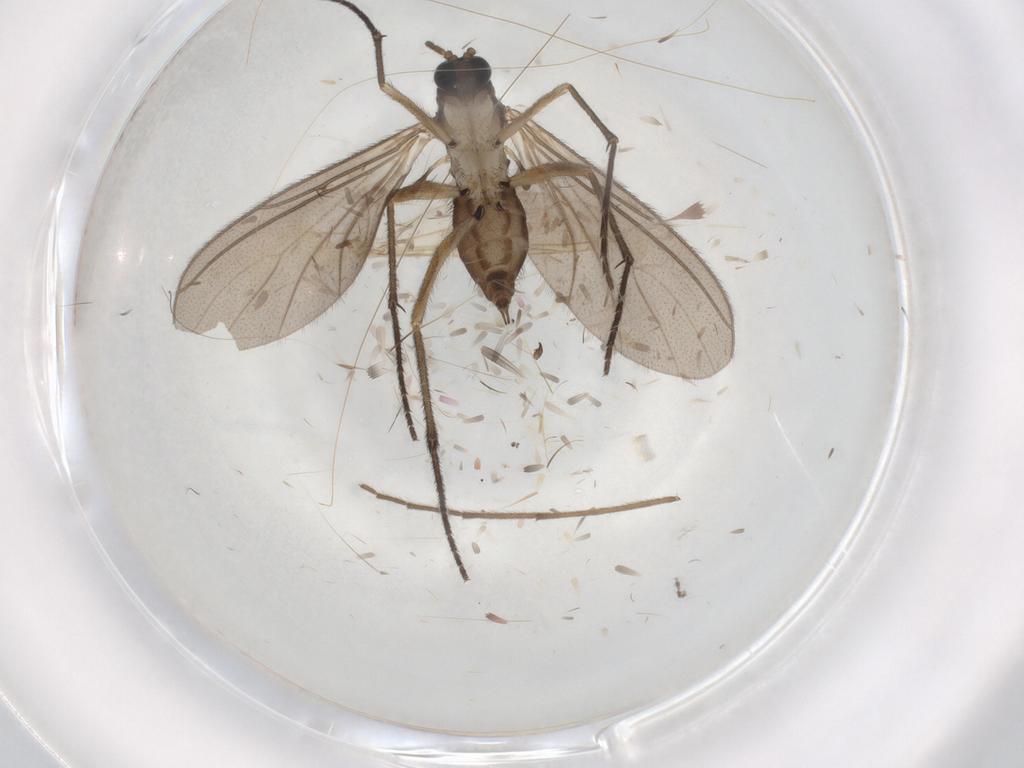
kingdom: Animalia
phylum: Arthropoda
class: Insecta
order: Diptera
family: Sciaridae
